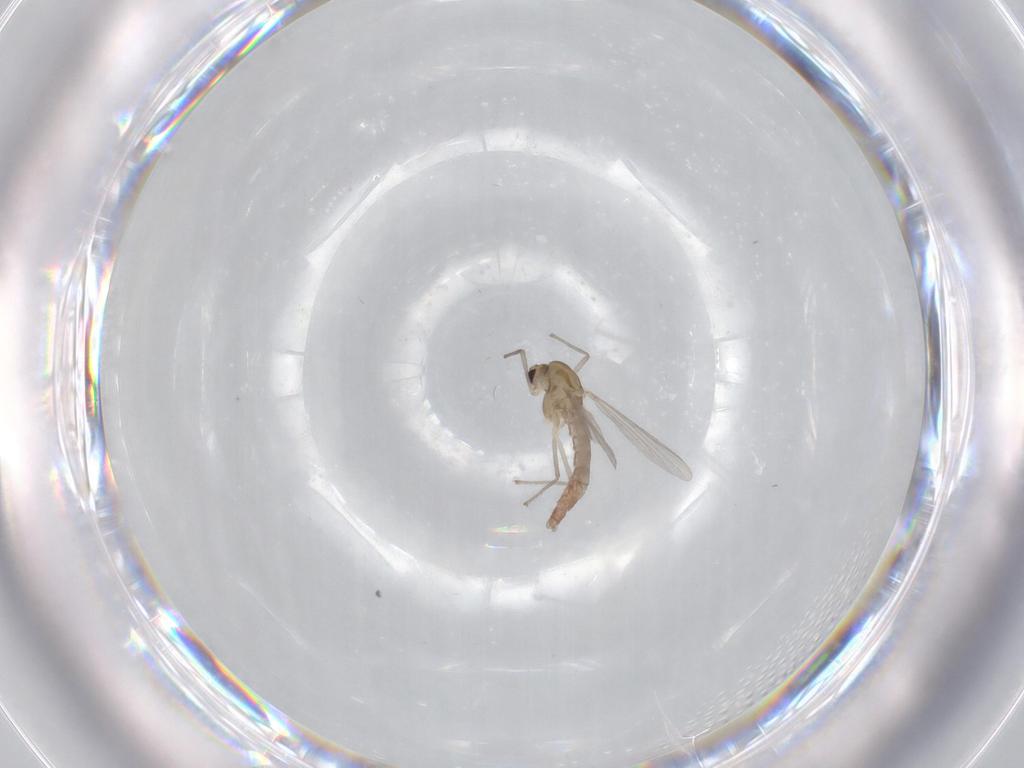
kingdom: Animalia
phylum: Arthropoda
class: Insecta
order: Diptera
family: Chironomidae
